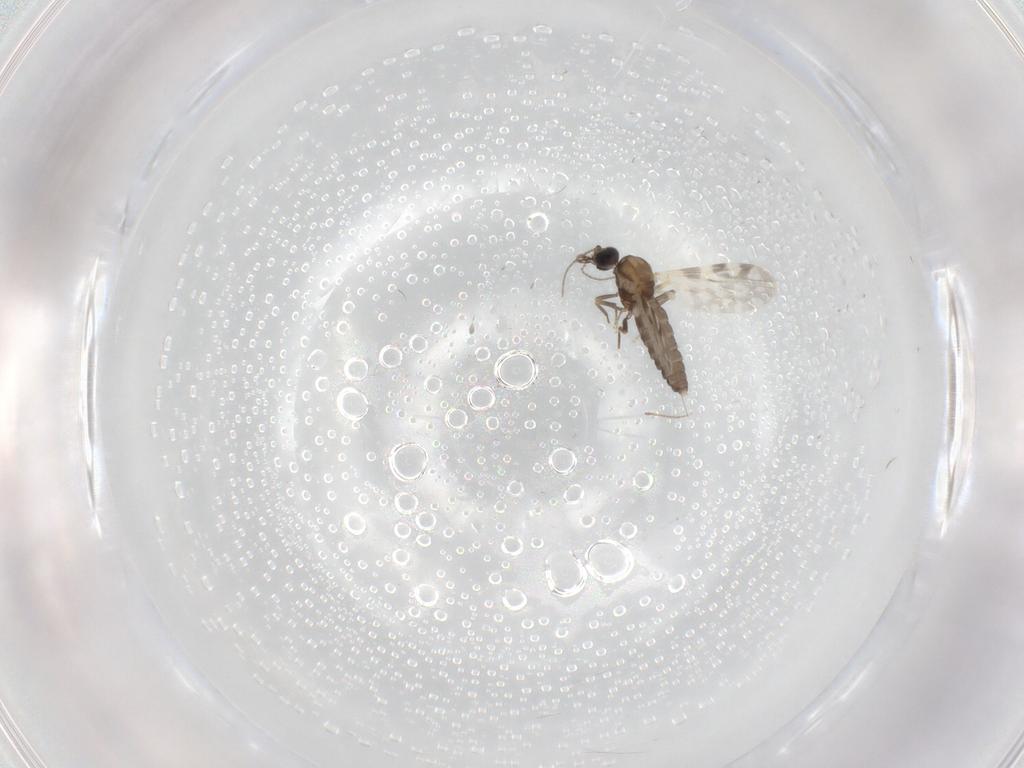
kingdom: Animalia
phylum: Arthropoda
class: Insecta
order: Diptera
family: Ceratopogonidae
